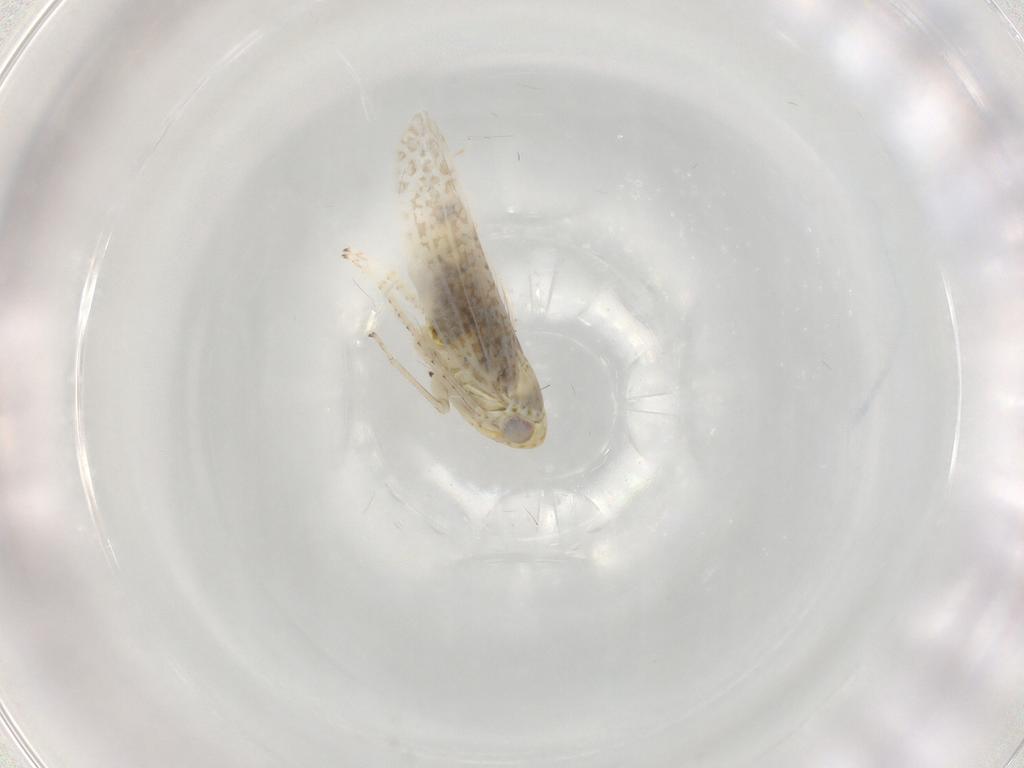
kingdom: Animalia
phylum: Arthropoda
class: Insecta
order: Hemiptera
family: Cicadellidae
